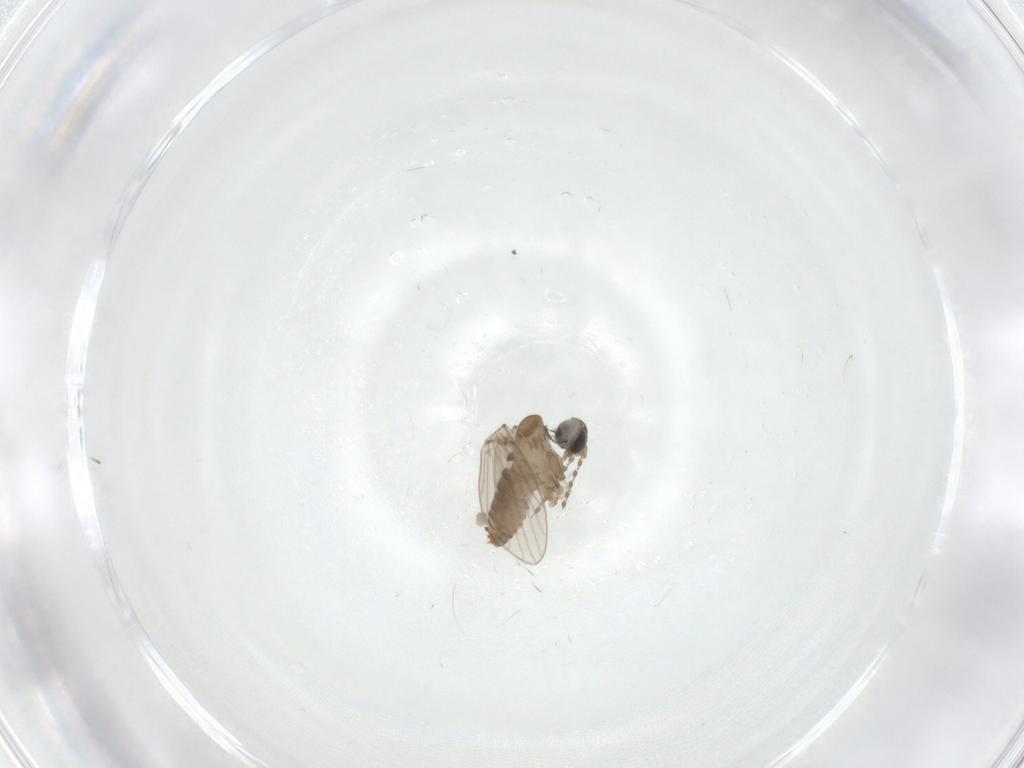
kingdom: Animalia
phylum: Arthropoda
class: Insecta
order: Diptera
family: Psychodidae
